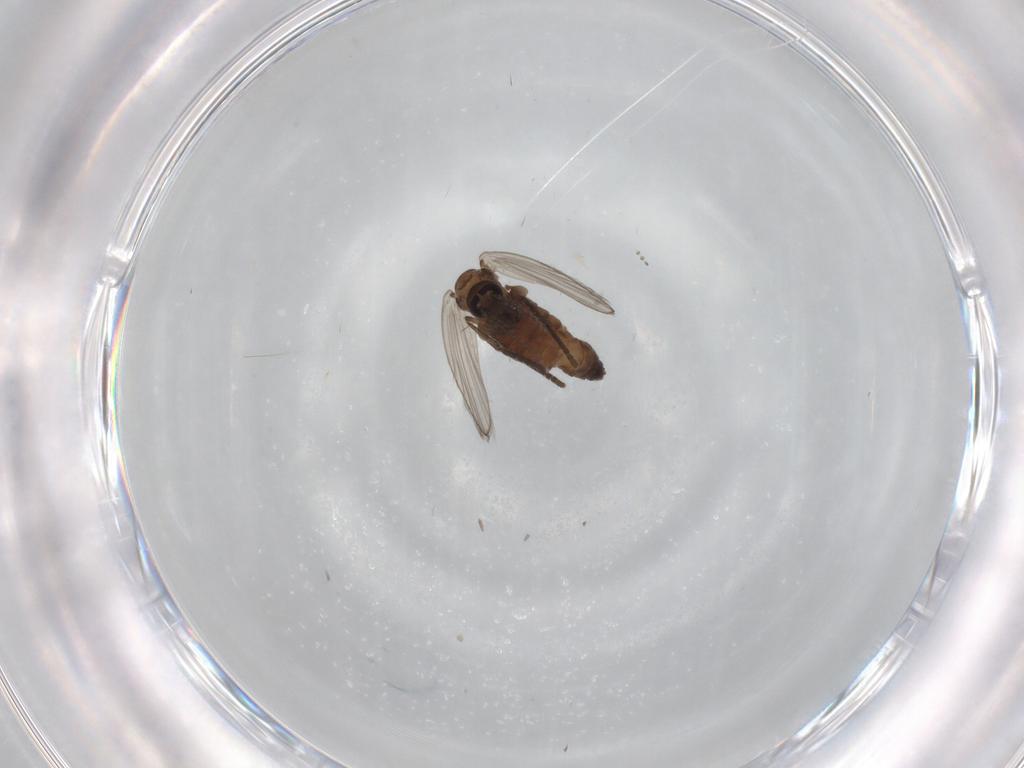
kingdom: Animalia
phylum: Arthropoda
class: Insecta
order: Diptera
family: Psychodidae
